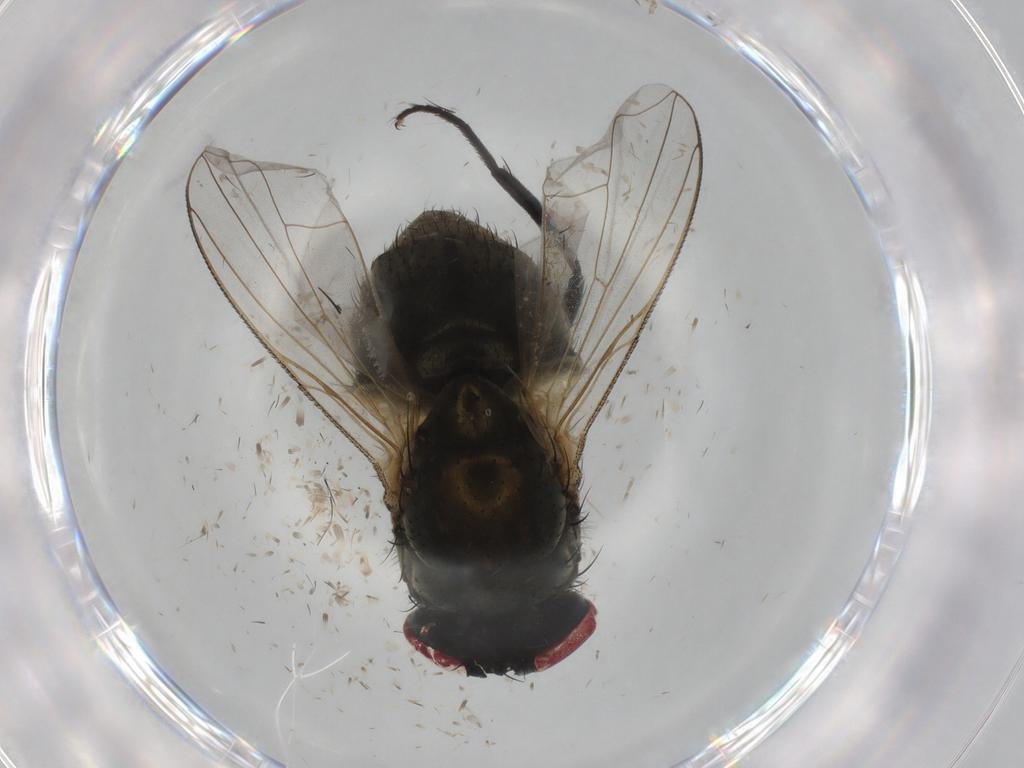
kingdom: Animalia
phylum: Arthropoda
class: Insecta
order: Diptera
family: Muscidae
